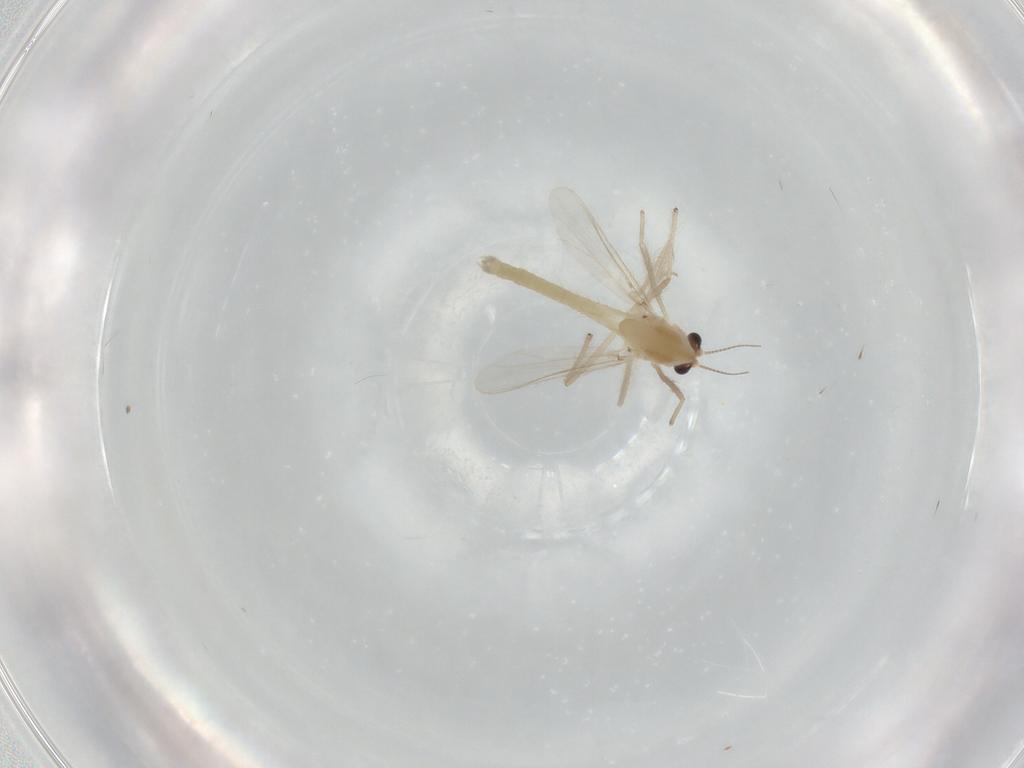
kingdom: Animalia
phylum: Arthropoda
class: Insecta
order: Diptera
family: Chironomidae
